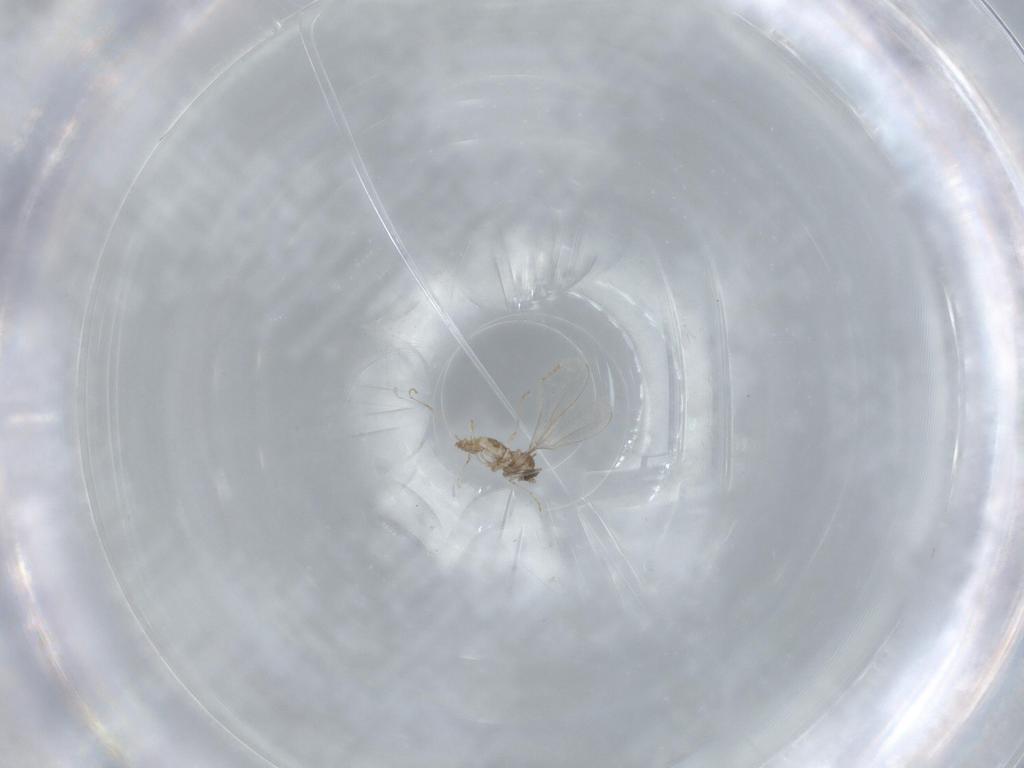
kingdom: Animalia
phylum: Arthropoda
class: Insecta
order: Diptera
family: Cecidomyiidae
